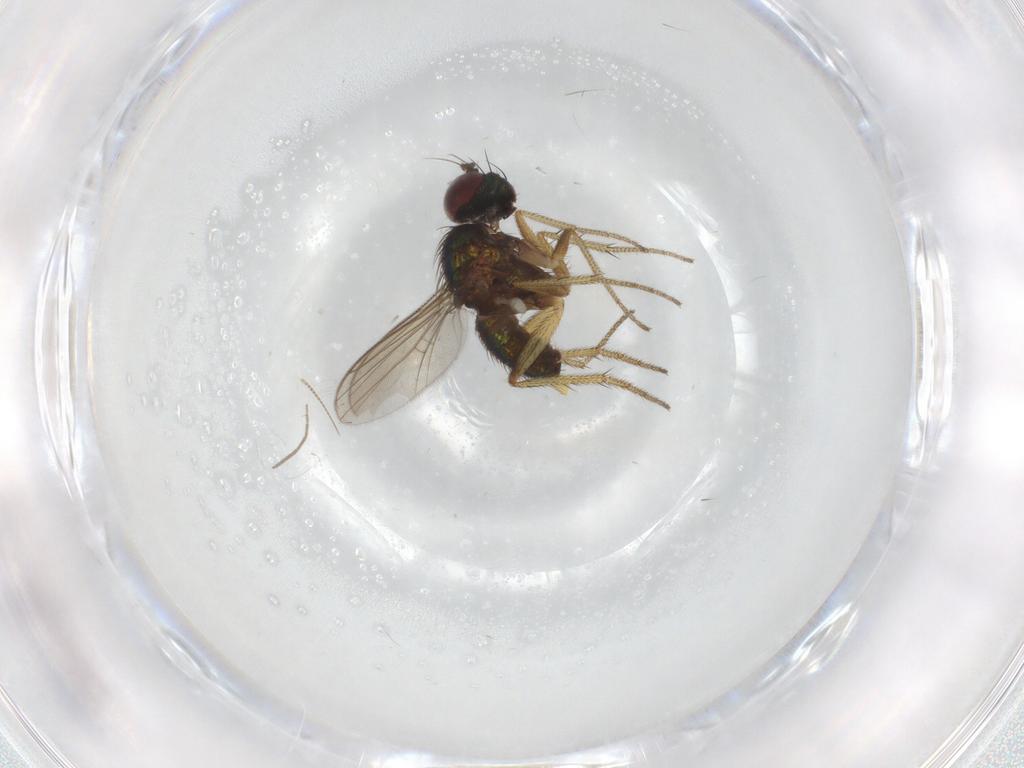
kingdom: Animalia
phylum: Arthropoda
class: Insecta
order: Diptera
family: Dolichopodidae
